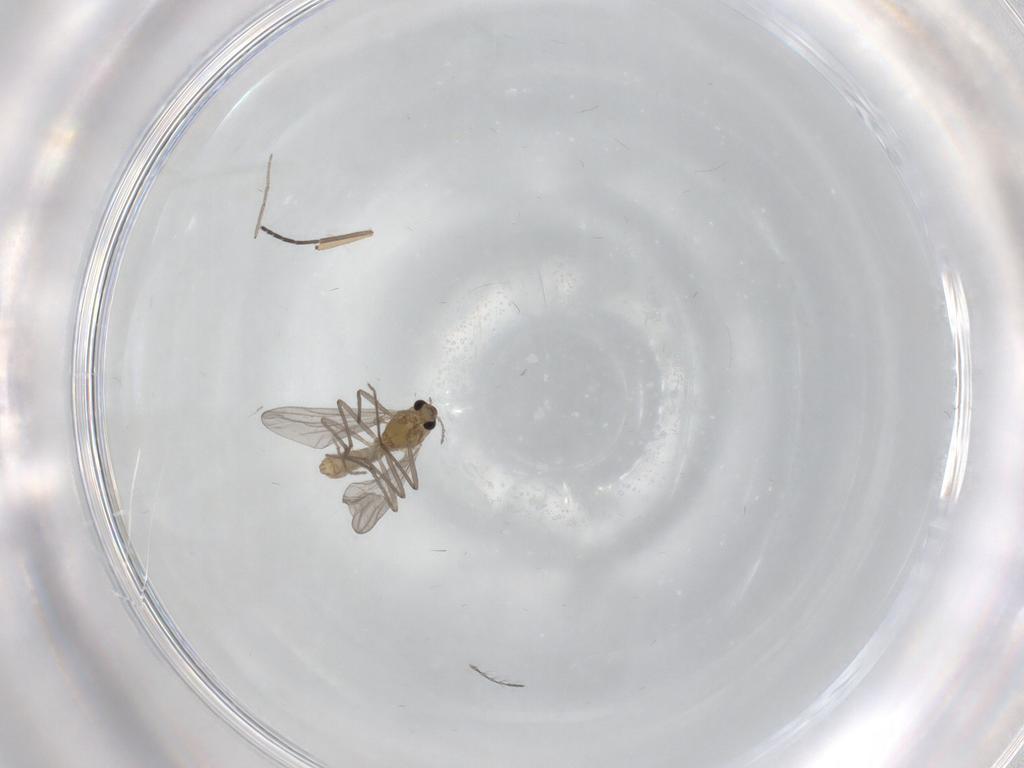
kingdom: Animalia
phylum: Arthropoda
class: Insecta
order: Diptera
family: Chironomidae
